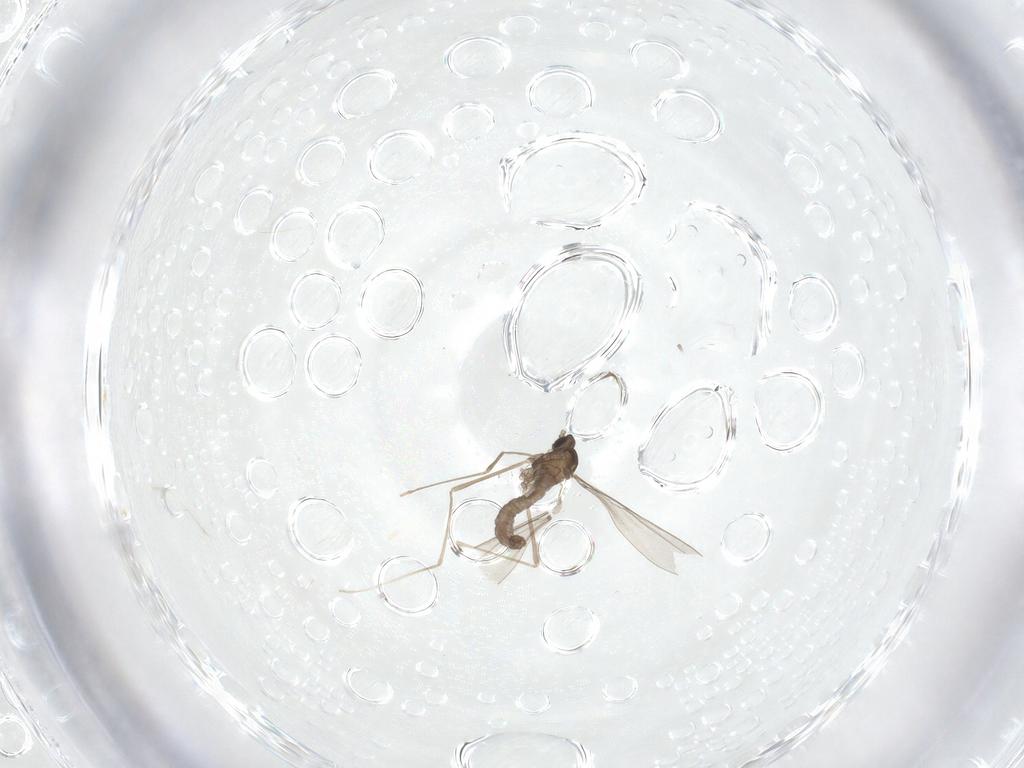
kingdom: Animalia
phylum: Arthropoda
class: Insecta
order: Diptera
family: Cecidomyiidae
